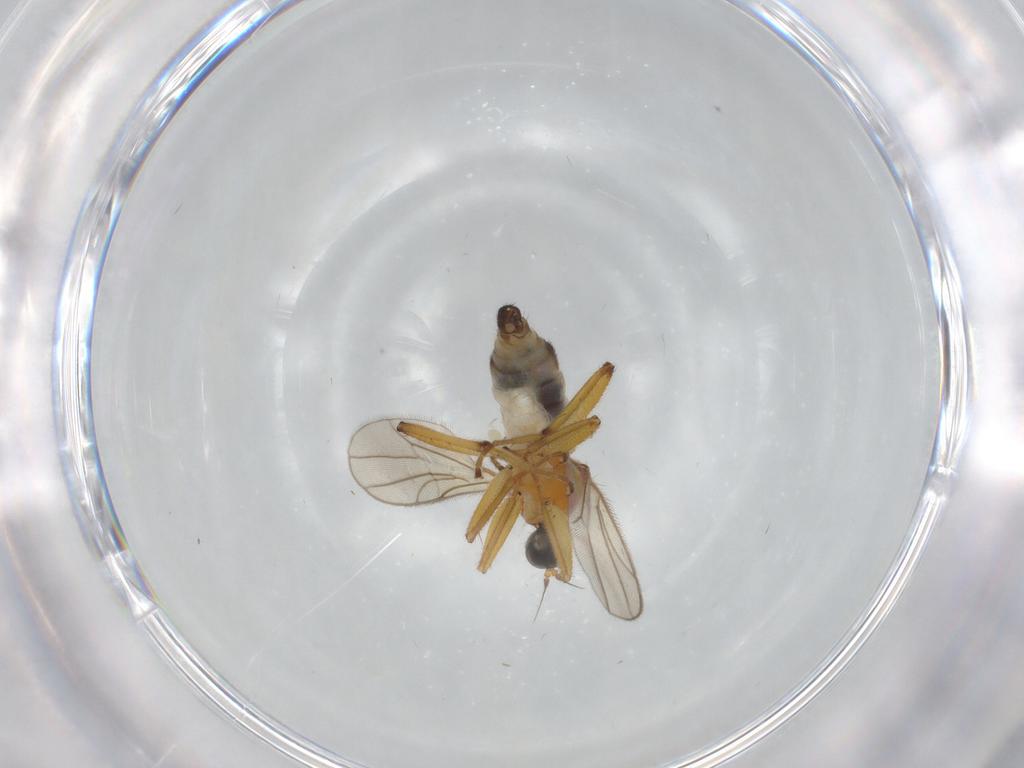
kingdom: Animalia
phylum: Arthropoda
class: Insecta
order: Diptera
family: Hybotidae
